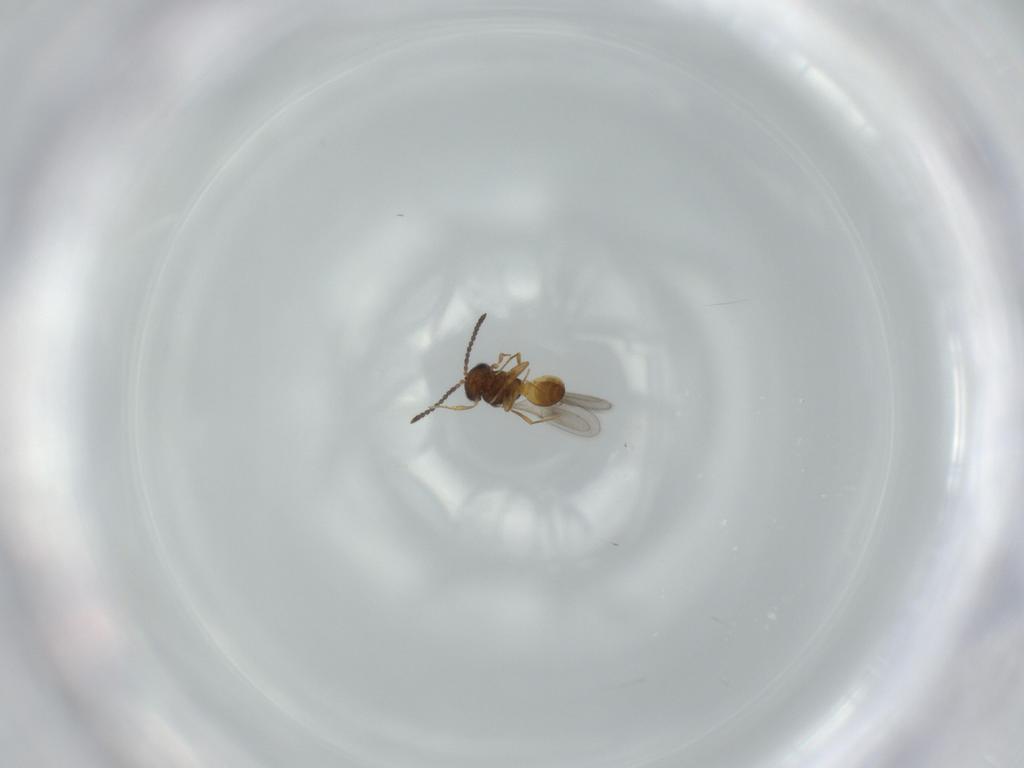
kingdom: Animalia
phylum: Arthropoda
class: Insecta
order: Hymenoptera
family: Scelionidae
